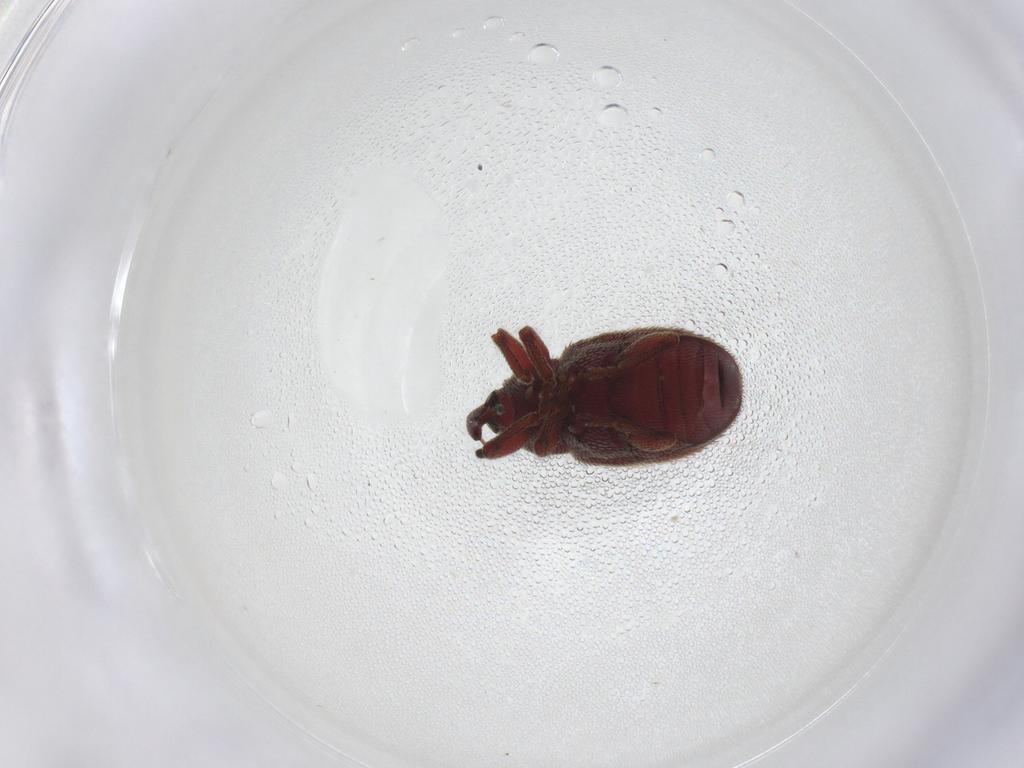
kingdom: Animalia
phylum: Arthropoda
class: Insecta
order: Coleoptera
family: Curculionidae
